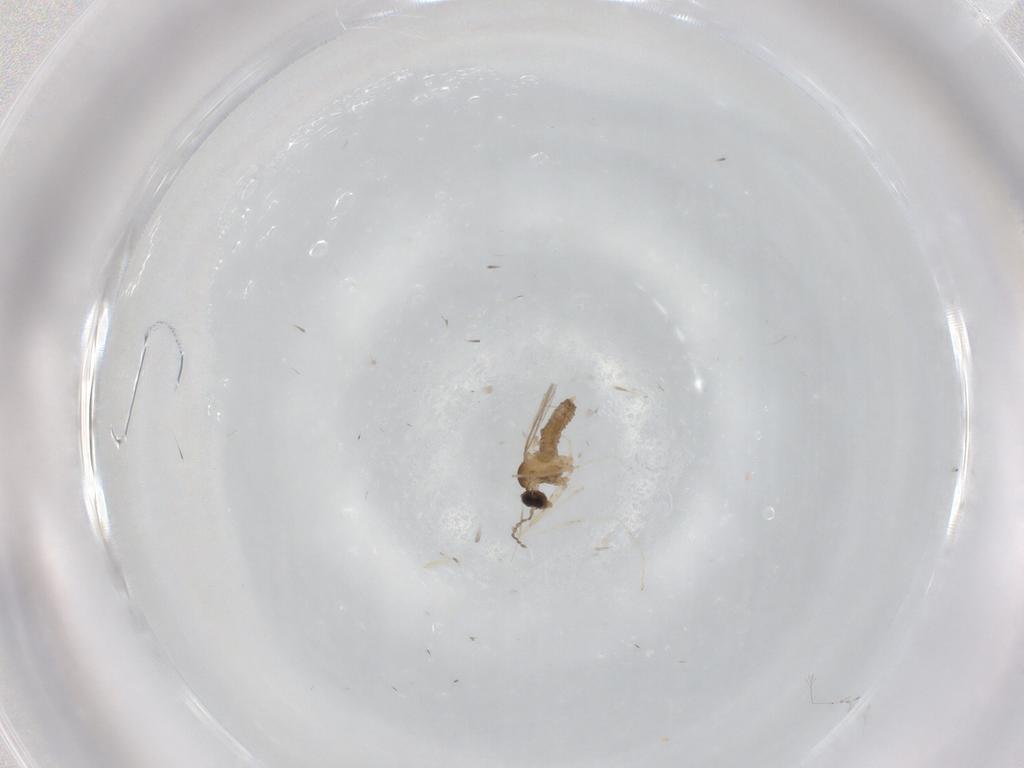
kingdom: Animalia
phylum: Arthropoda
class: Insecta
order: Diptera
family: Cecidomyiidae
